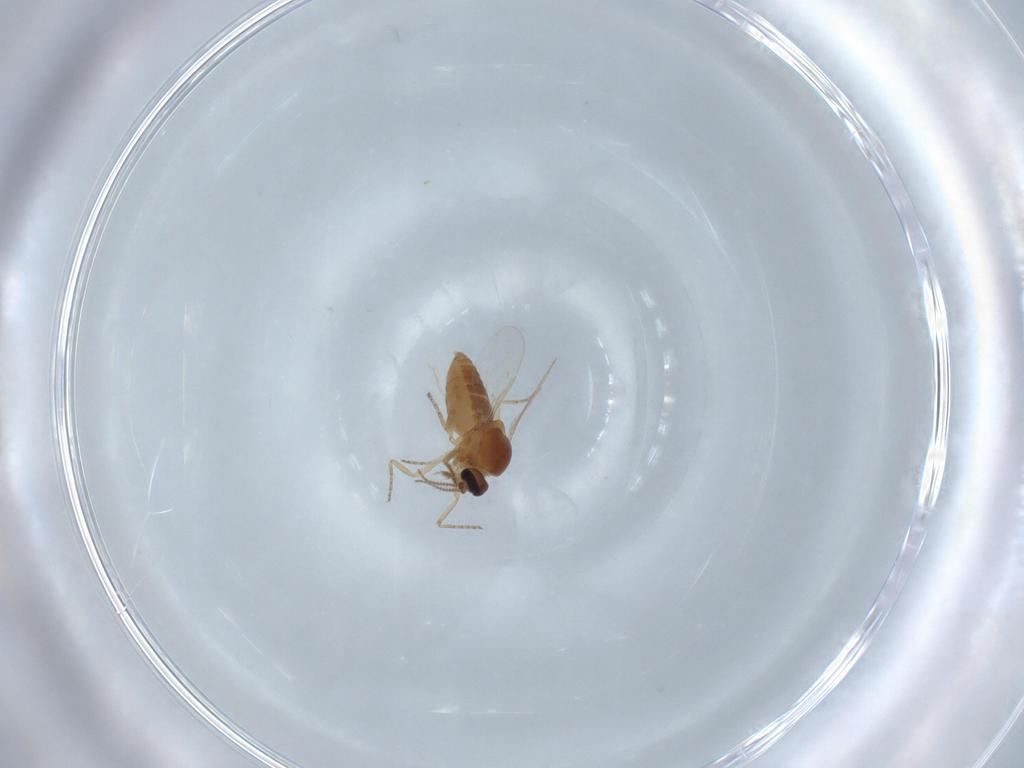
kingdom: Animalia
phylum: Arthropoda
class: Insecta
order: Diptera
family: Ceratopogonidae
